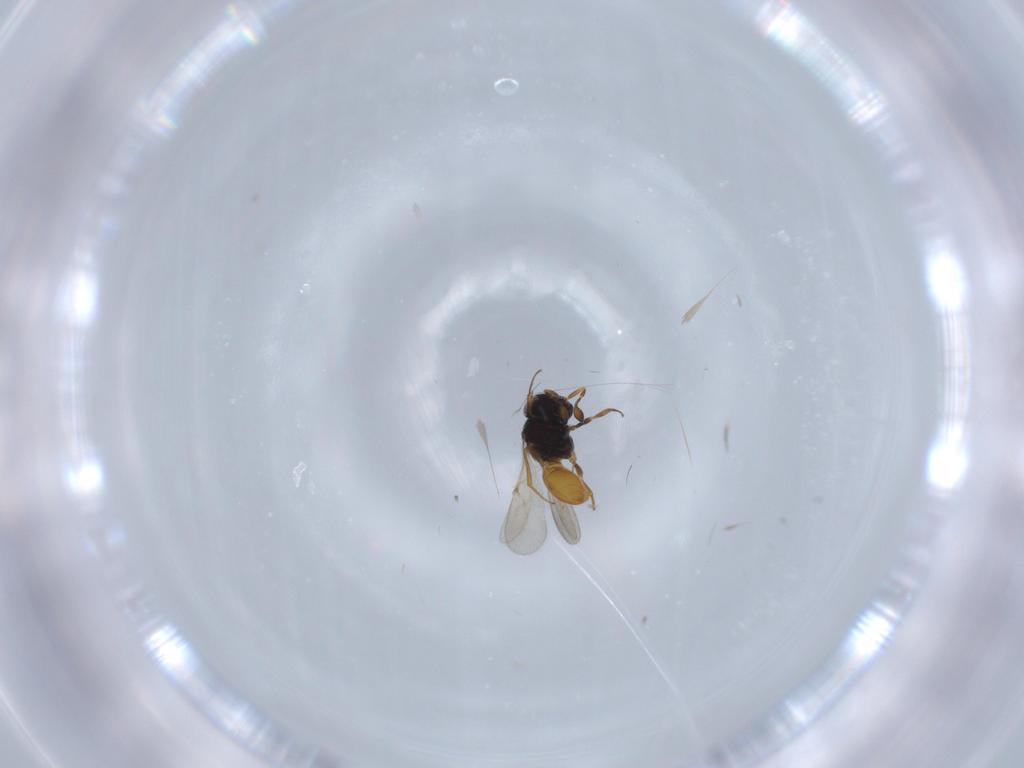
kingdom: Animalia
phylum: Arthropoda
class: Insecta
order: Hymenoptera
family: Scelionidae
